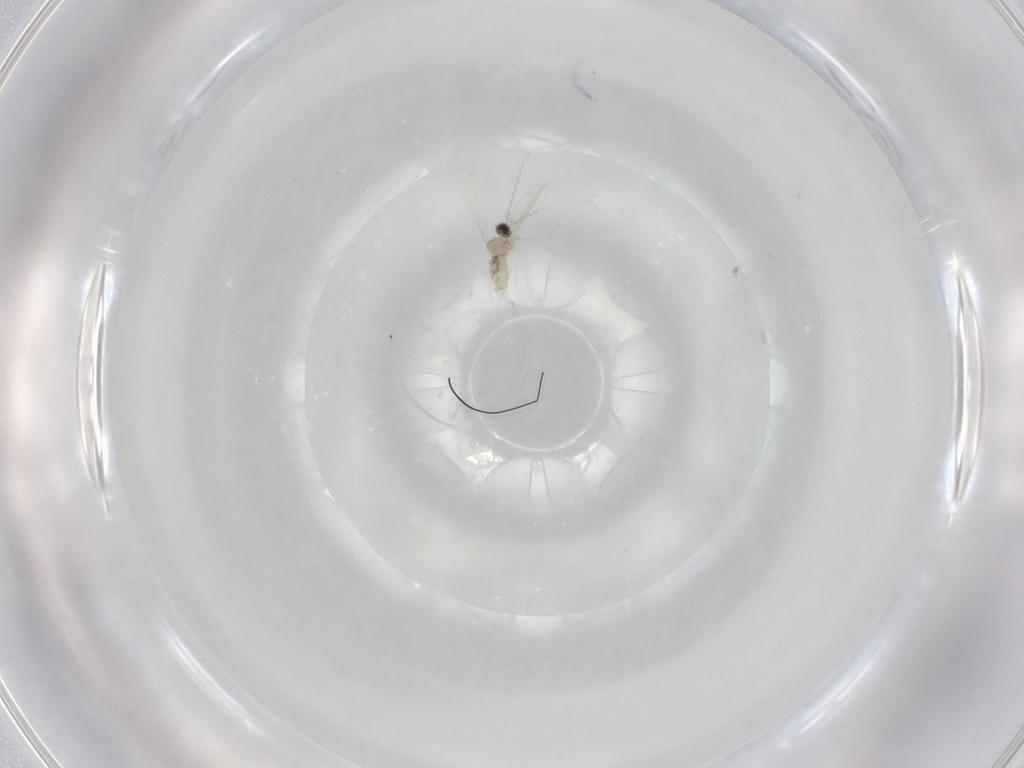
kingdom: Animalia
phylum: Arthropoda
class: Insecta
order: Diptera
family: Cecidomyiidae
